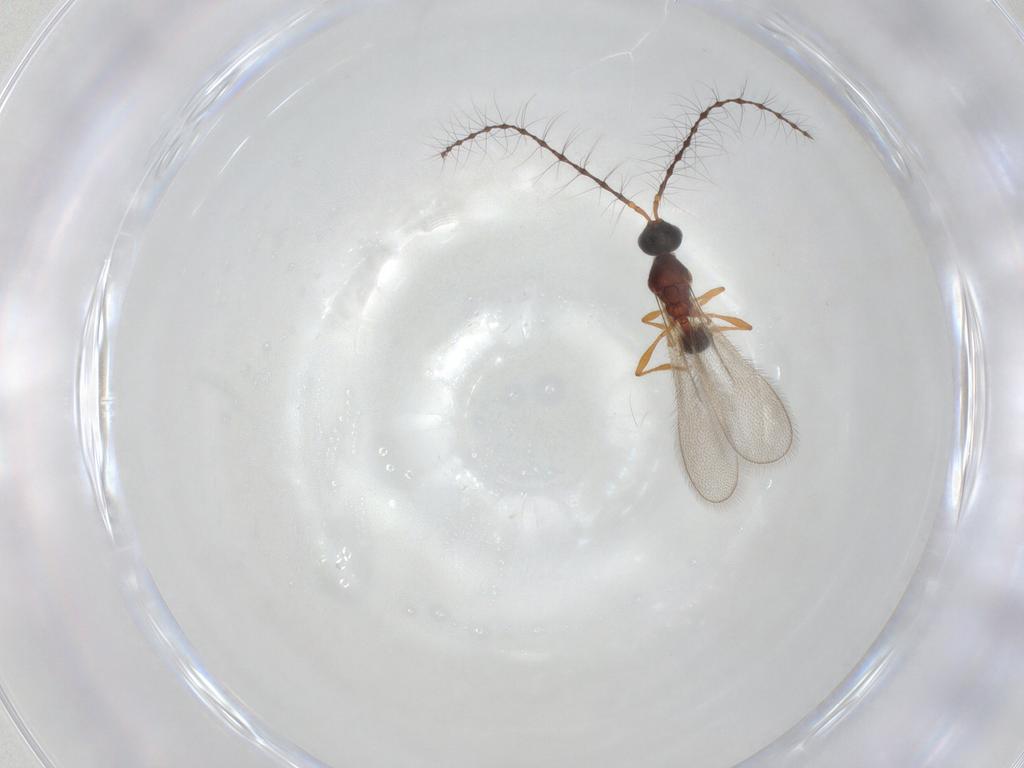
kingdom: Animalia
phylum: Arthropoda
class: Insecta
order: Hymenoptera
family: Diapriidae
